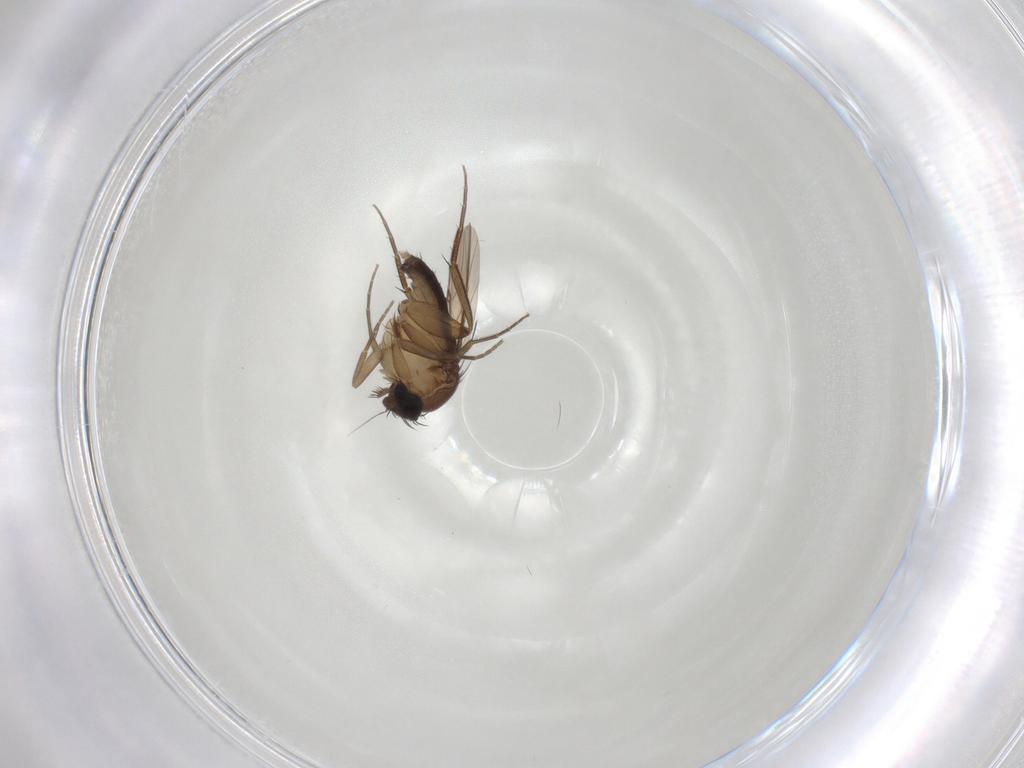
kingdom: Animalia
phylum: Arthropoda
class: Insecta
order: Diptera
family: Phoridae
